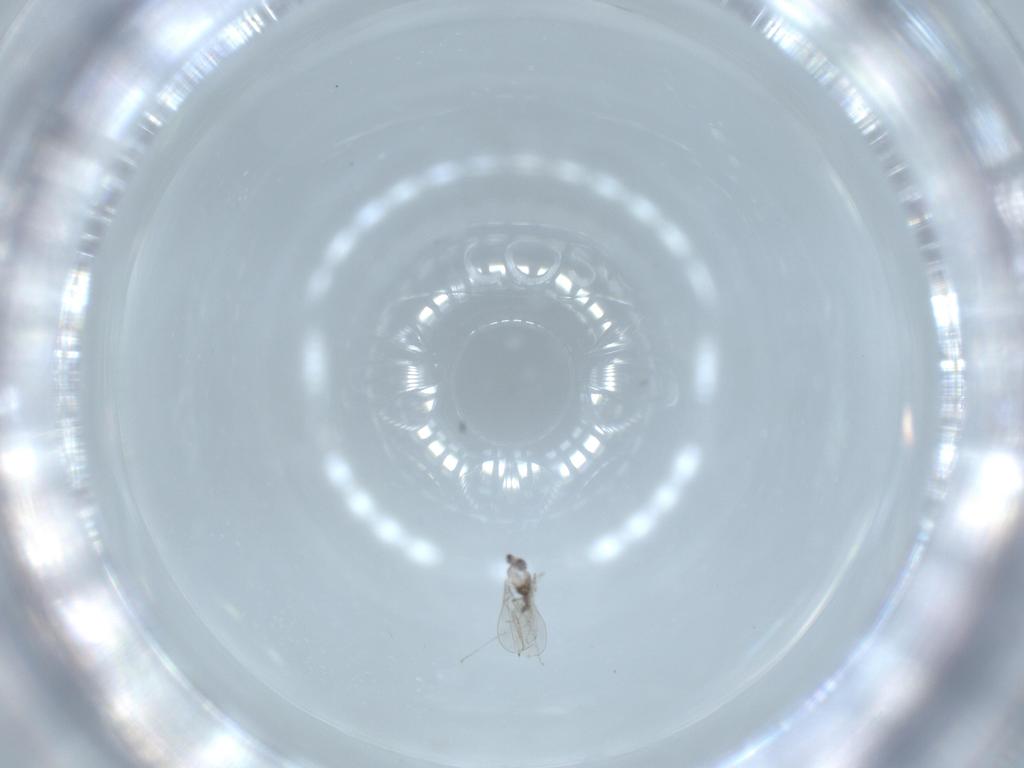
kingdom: Animalia
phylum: Arthropoda
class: Insecta
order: Diptera
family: Cecidomyiidae
